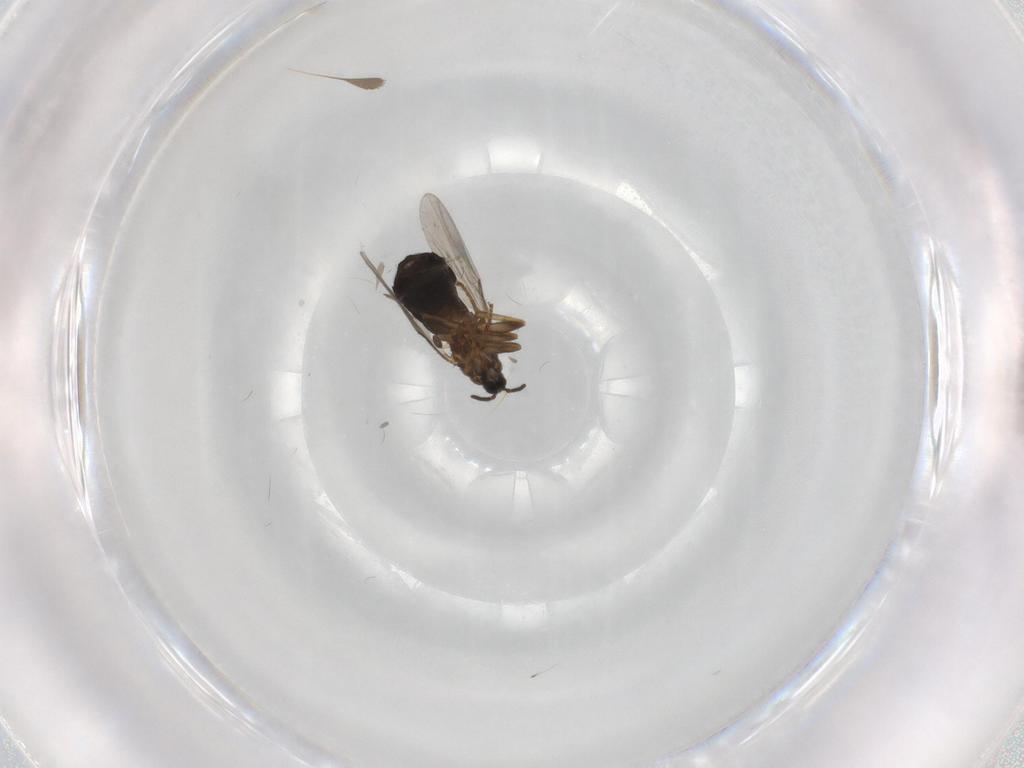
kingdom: Animalia
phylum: Arthropoda
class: Insecta
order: Diptera
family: Scatopsidae
